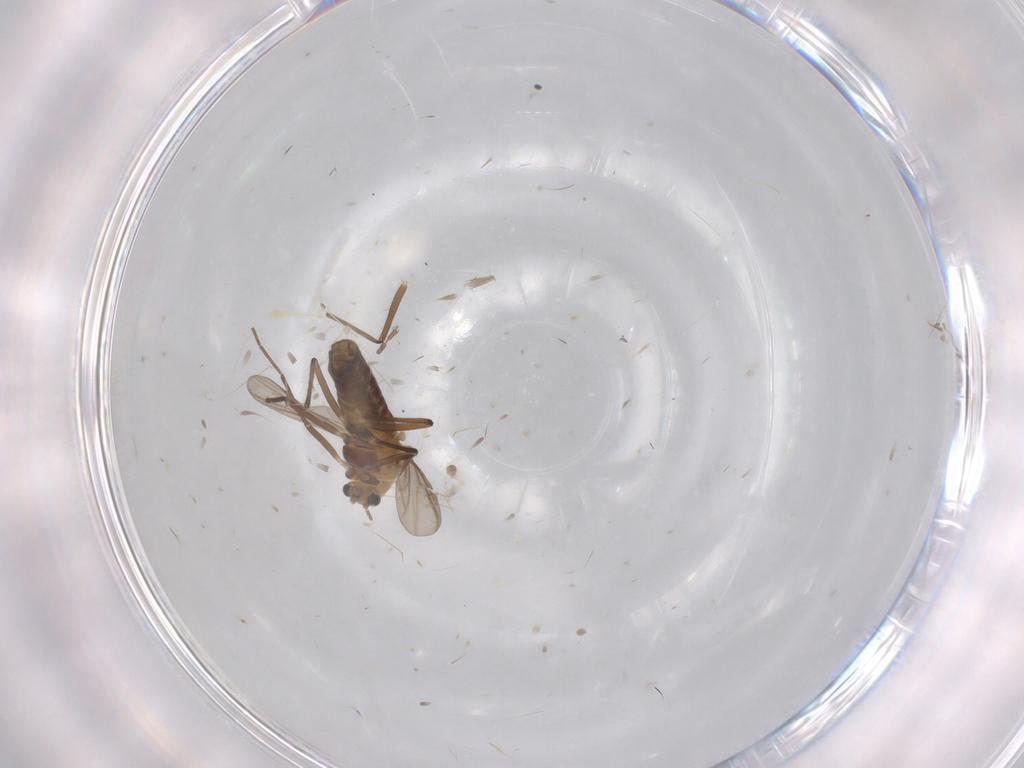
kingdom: Animalia
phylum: Arthropoda
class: Insecta
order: Diptera
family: Chironomidae
